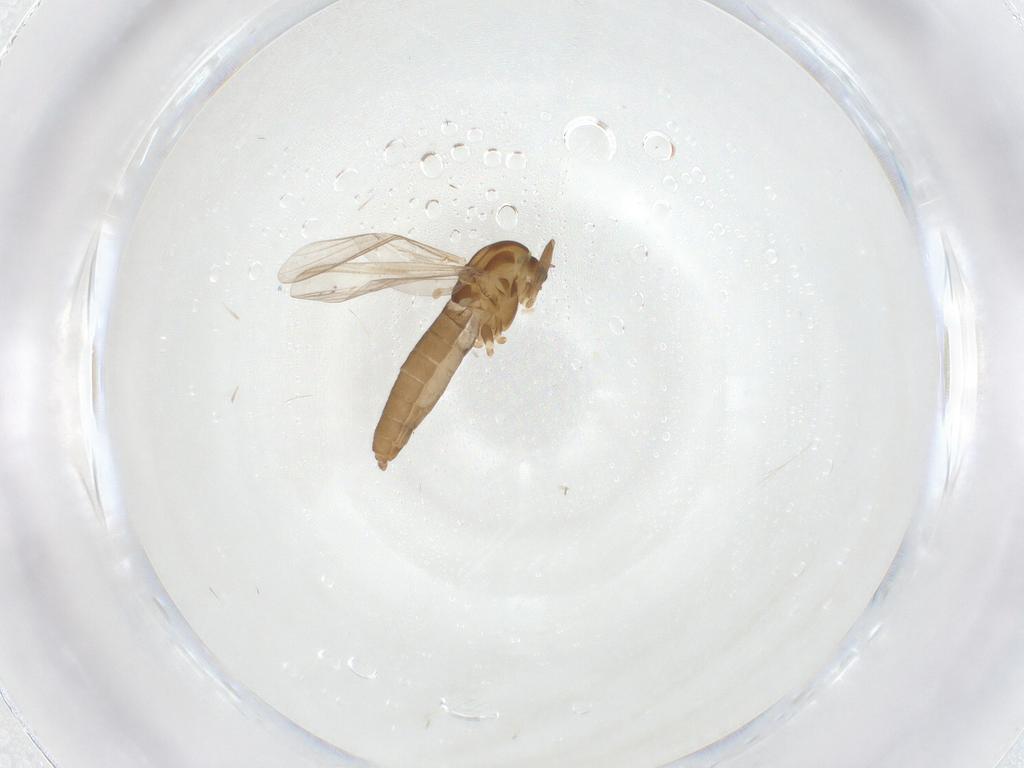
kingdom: Animalia
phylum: Arthropoda
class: Insecta
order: Diptera
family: Chironomidae
